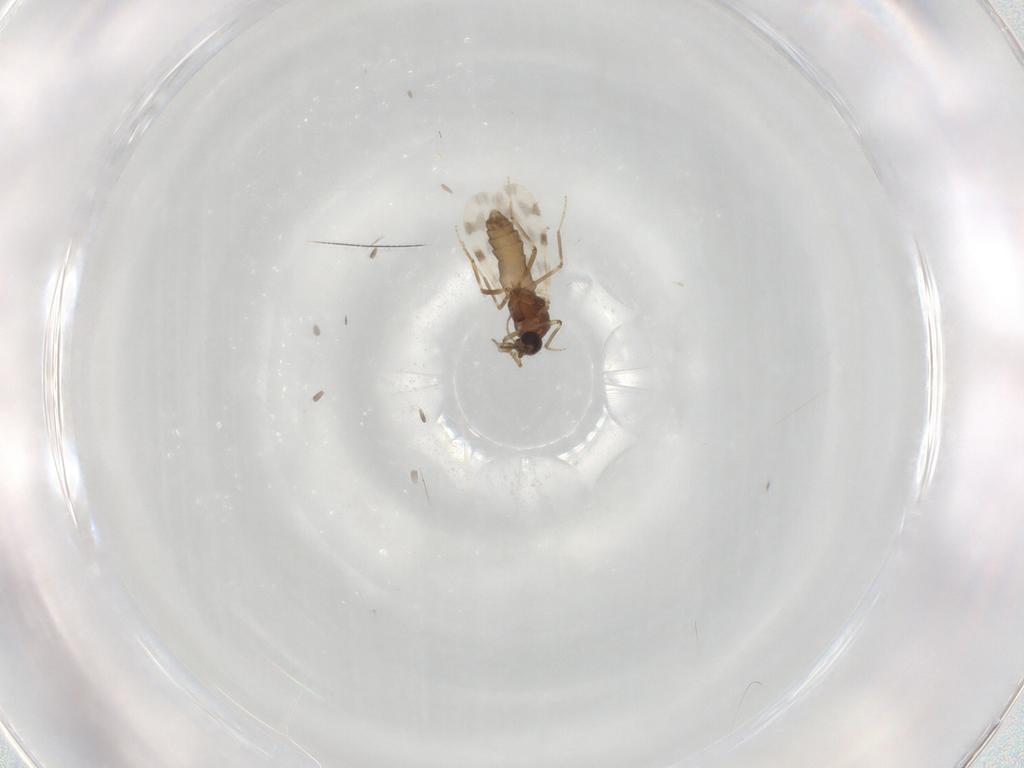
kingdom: Animalia
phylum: Arthropoda
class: Insecta
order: Diptera
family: Ceratopogonidae
